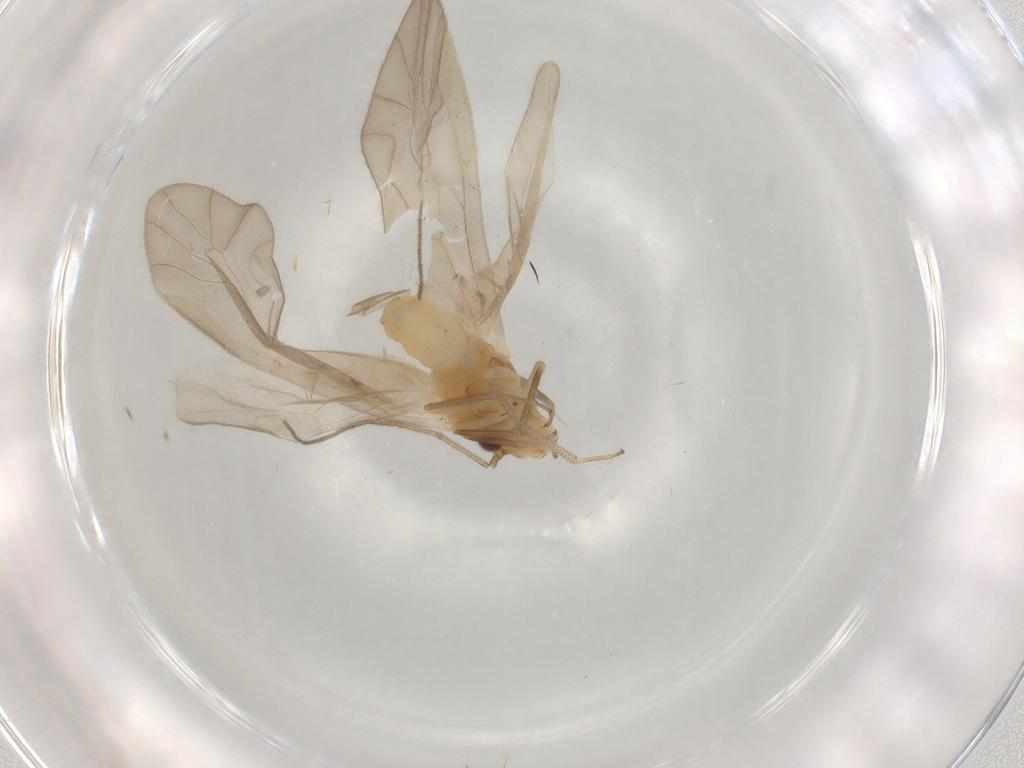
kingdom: Animalia
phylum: Arthropoda
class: Insecta
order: Psocodea
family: Caeciliusidae
